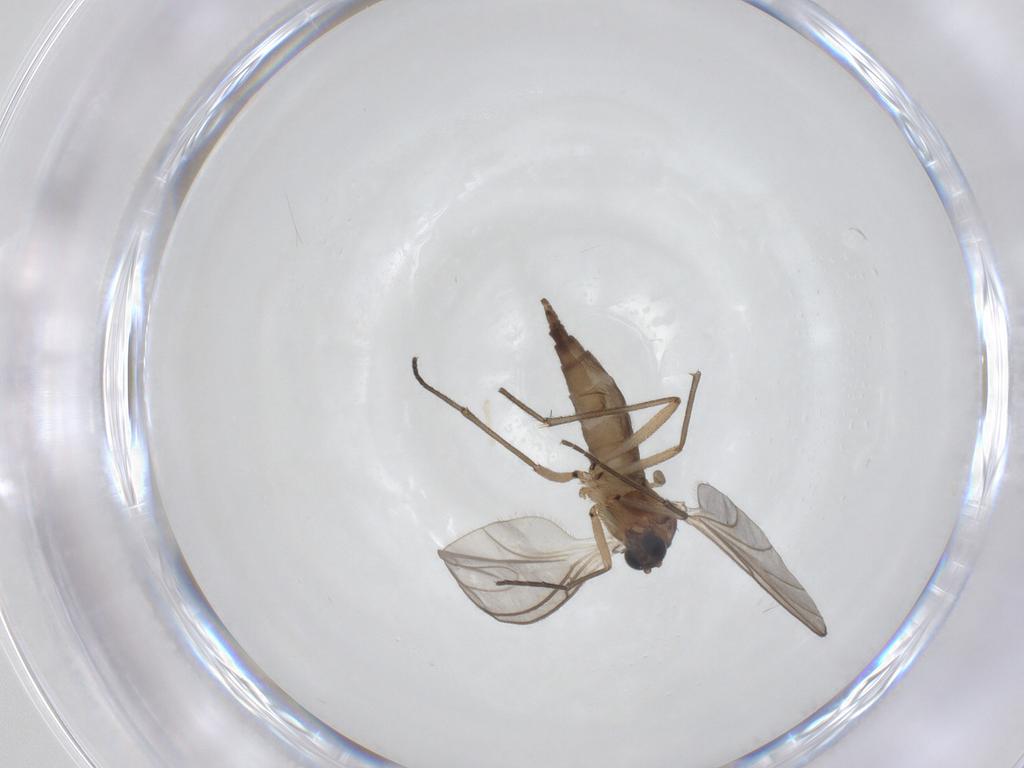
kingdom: Animalia
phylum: Arthropoda
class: Insecta
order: Diptera
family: Sciaridae
